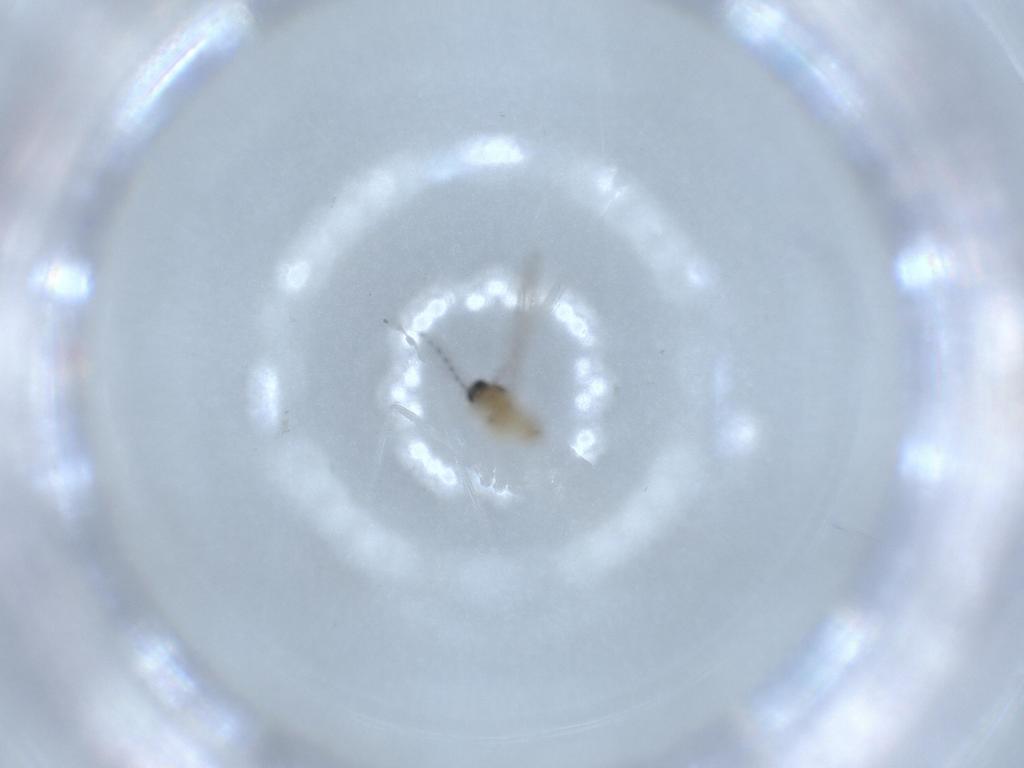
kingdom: Animalia
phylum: Arthropoda
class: Insecta
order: Diptera
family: Cecidomyiidae
